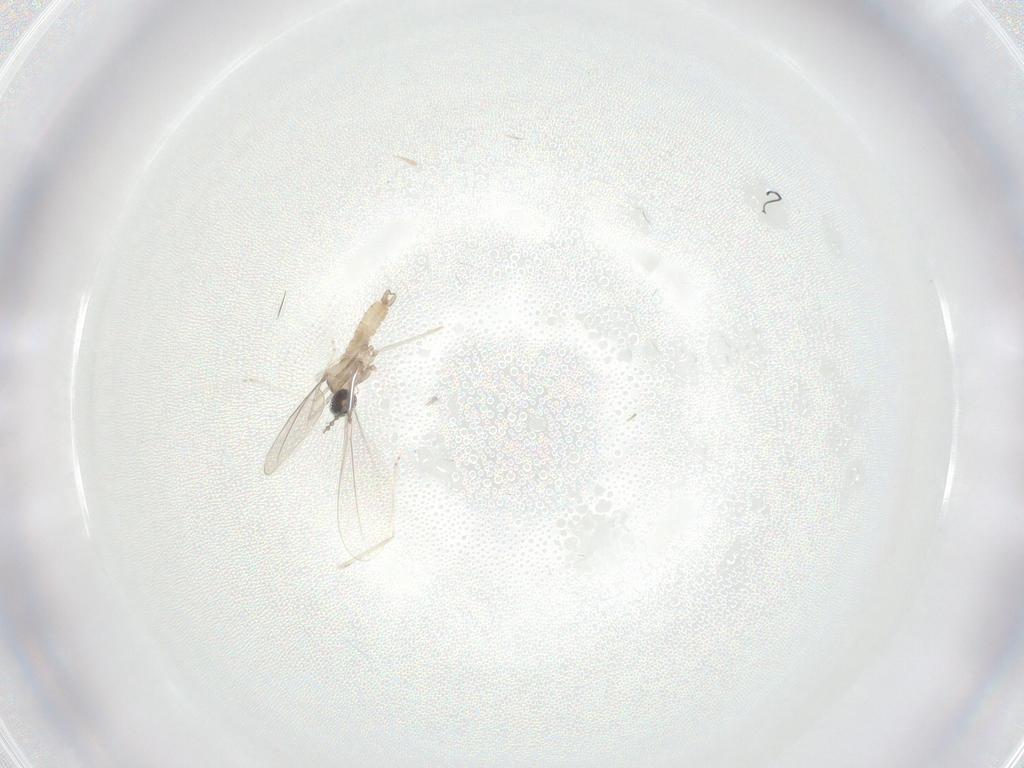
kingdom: Animalia
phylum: Arthropoda
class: Insecta
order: Diptera
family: Cecidomyiidae
